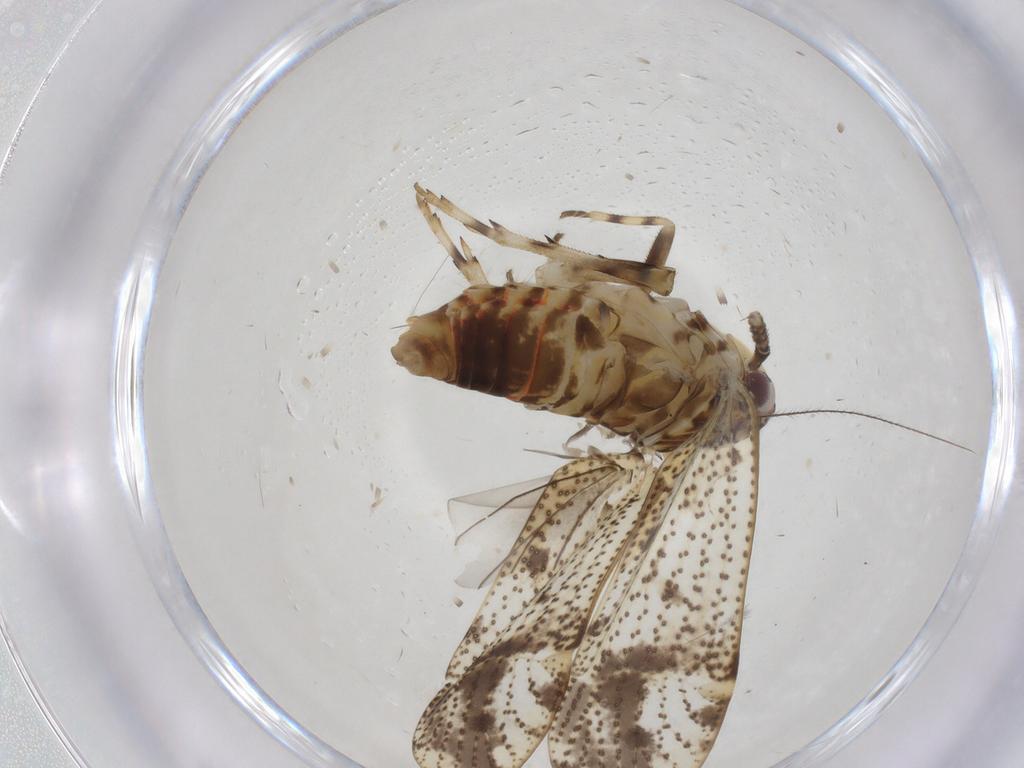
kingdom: Animalia
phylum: Arthropoda
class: Insecta
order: Hemiptera
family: Delphacidae
